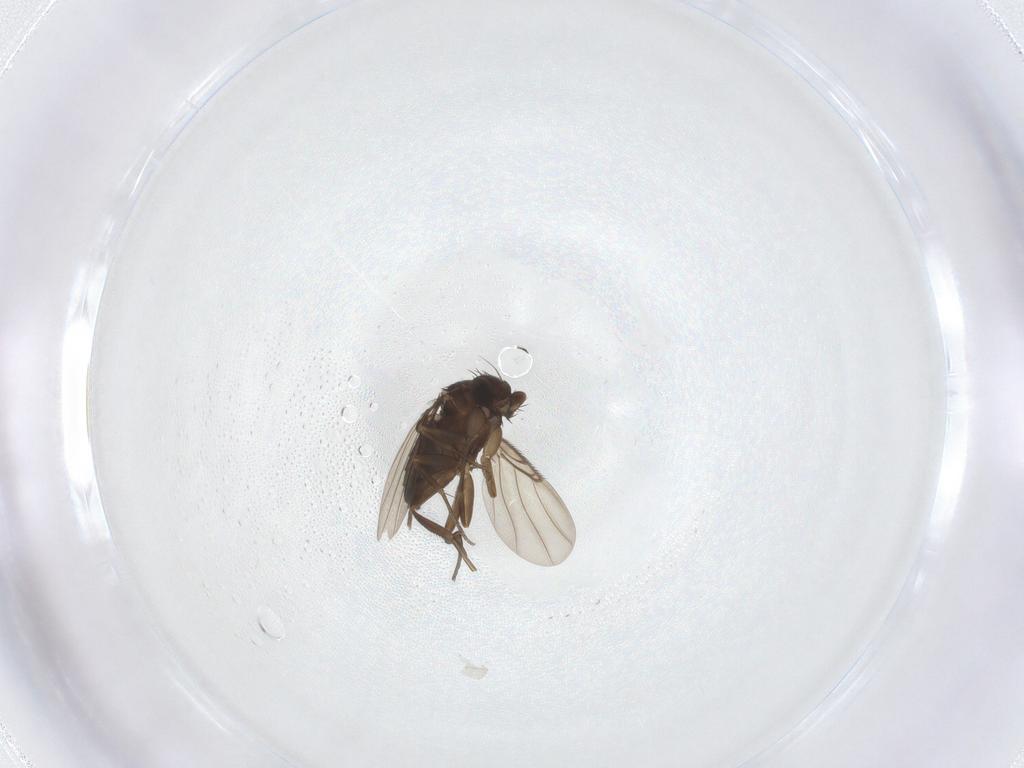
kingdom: Animalia
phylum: Arthropoda
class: Insecta
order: Diptera
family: Phoridae
